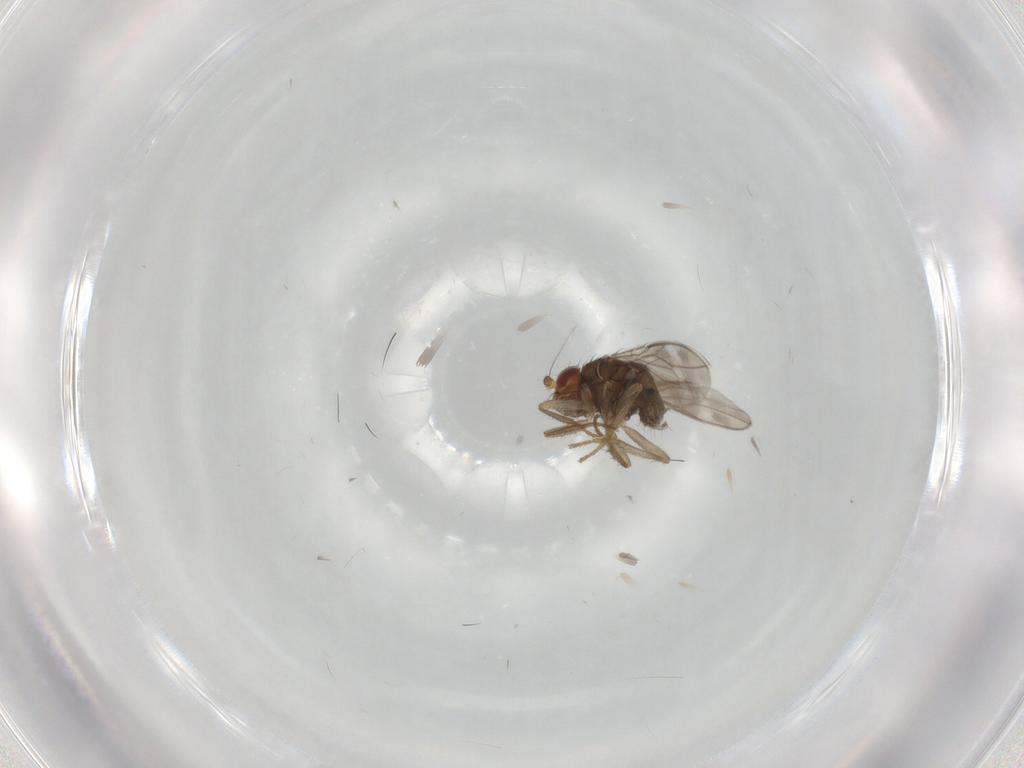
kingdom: Animalia
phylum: Arthropoda
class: Insecta
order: Diptera
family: Sphaeroceridae
